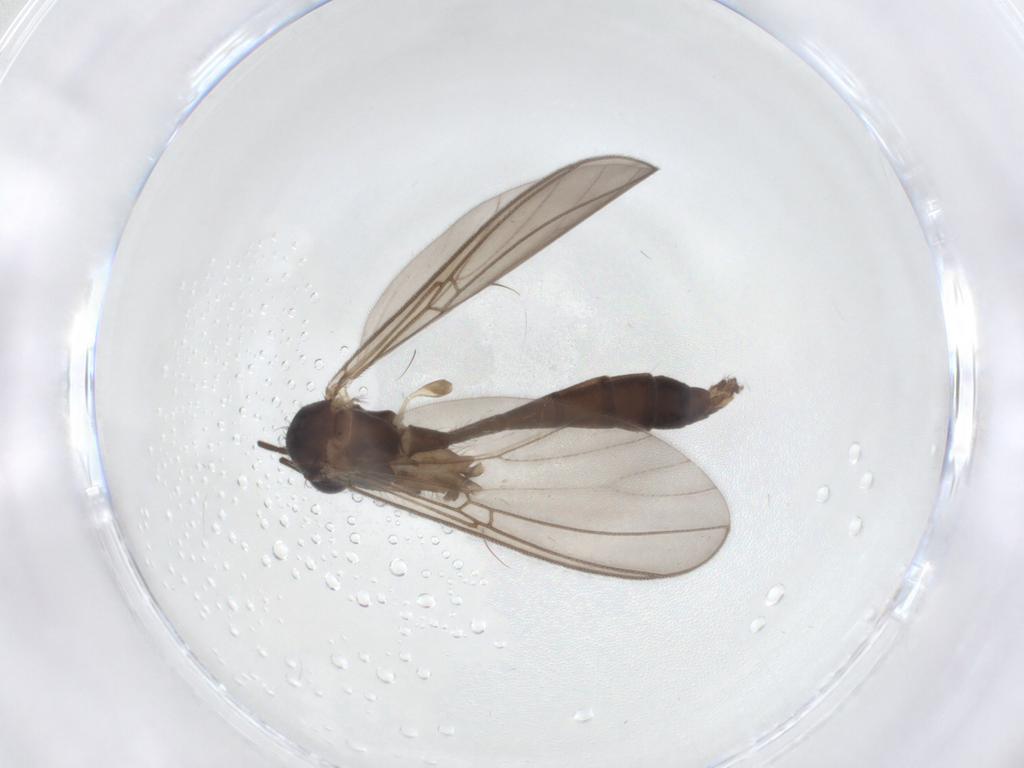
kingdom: Animalia
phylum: Arthropoda
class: Insecta
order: Diptera
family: Mycetophilidae
